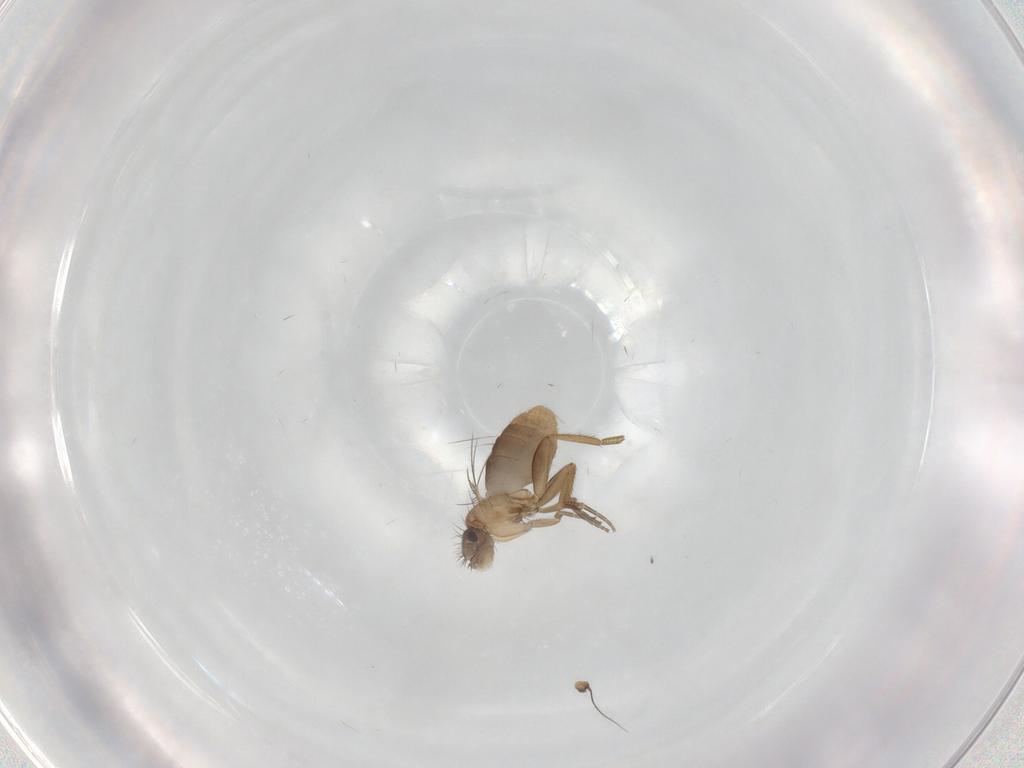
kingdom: Animalia
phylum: Arthropoda
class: Insecta
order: Diptera
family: Phoridae
